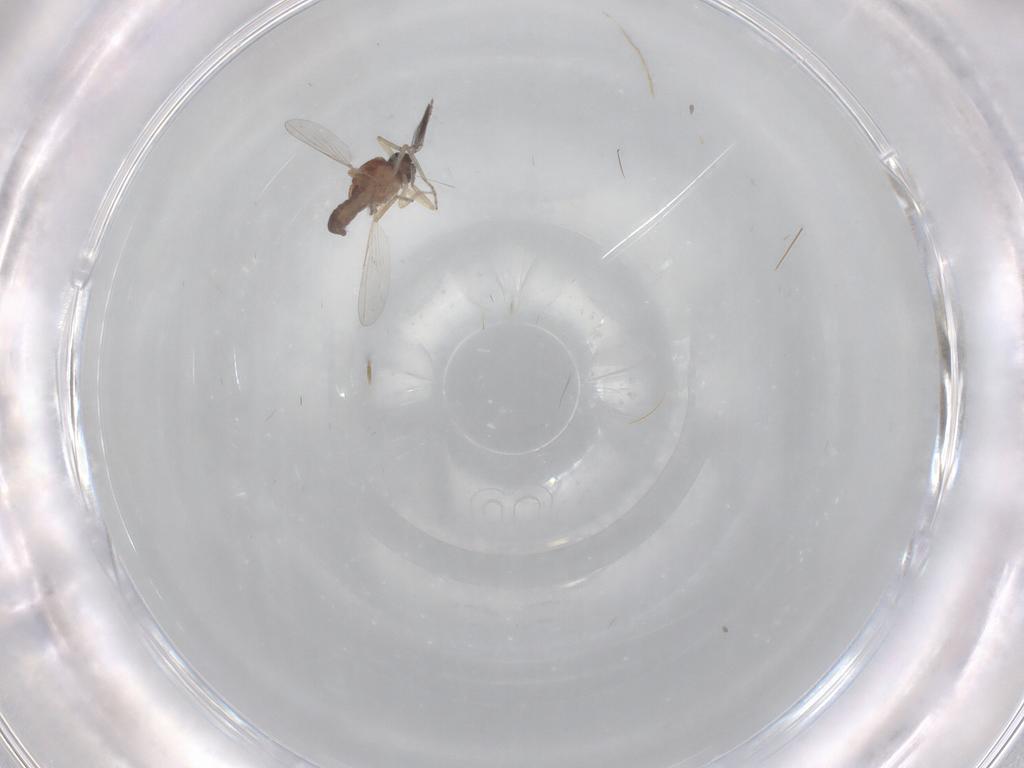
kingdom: Animalia
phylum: Arthropoda
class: Insecta
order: Diptera
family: Ceratopogonidae
